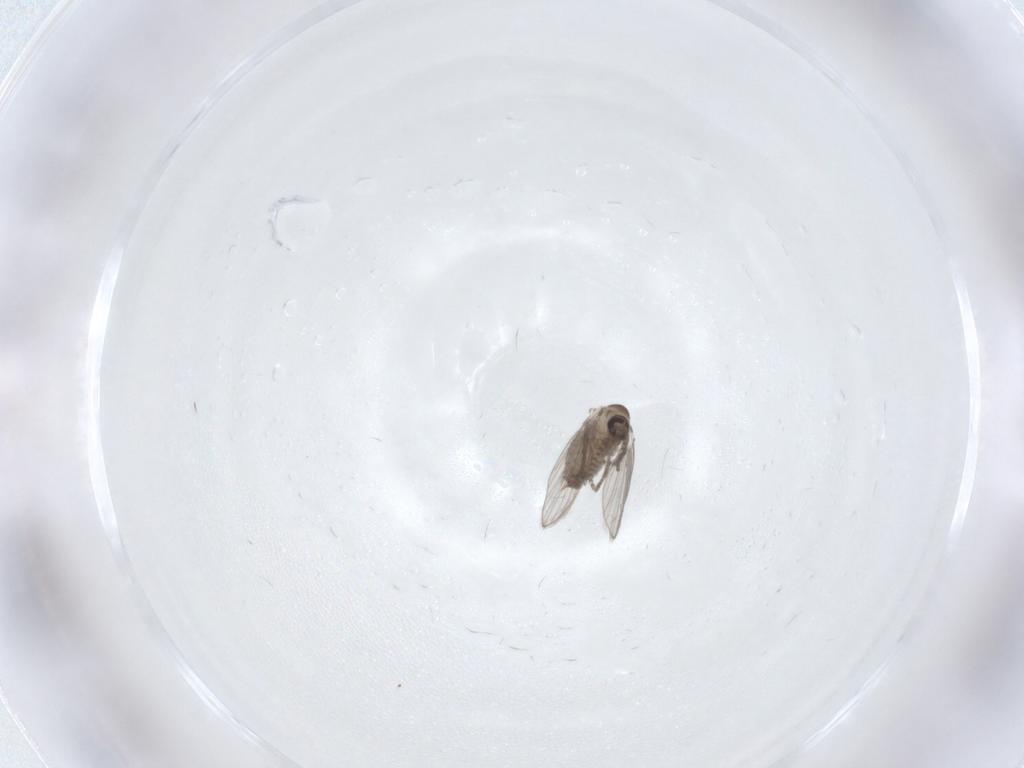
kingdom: Animalia
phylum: Arthropoda
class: Insecta
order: Diptera
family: Psychodidae
